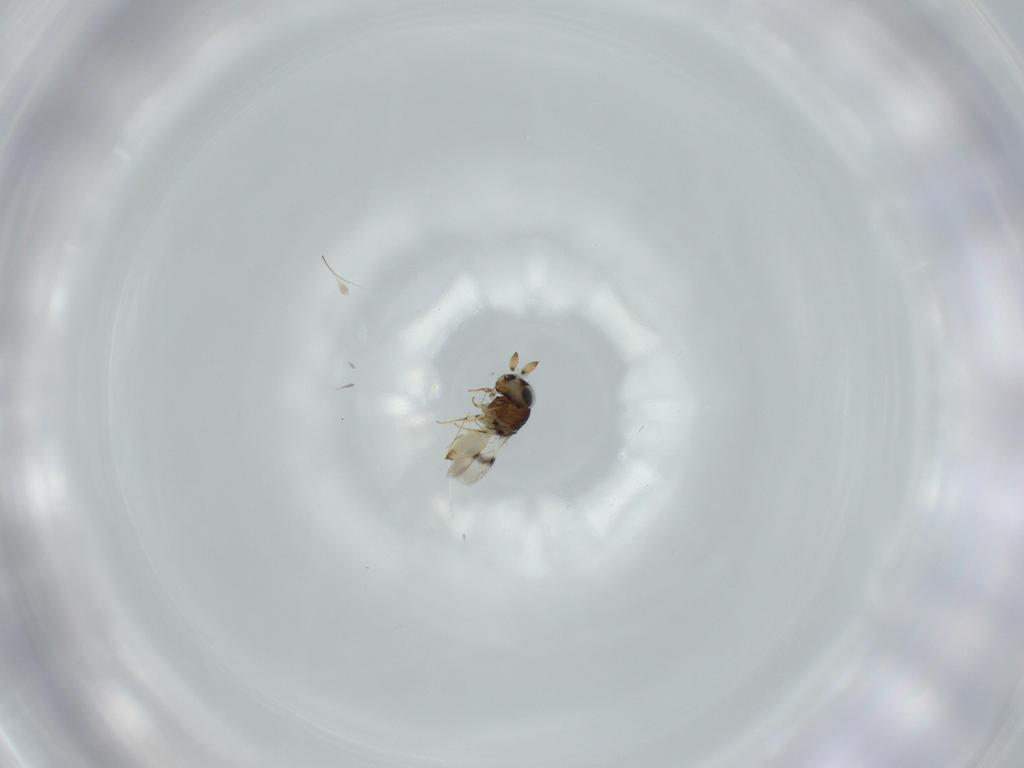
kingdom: Animalia
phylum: Arthropoda
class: Insecta
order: Hymenoptera
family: Scelionidae
